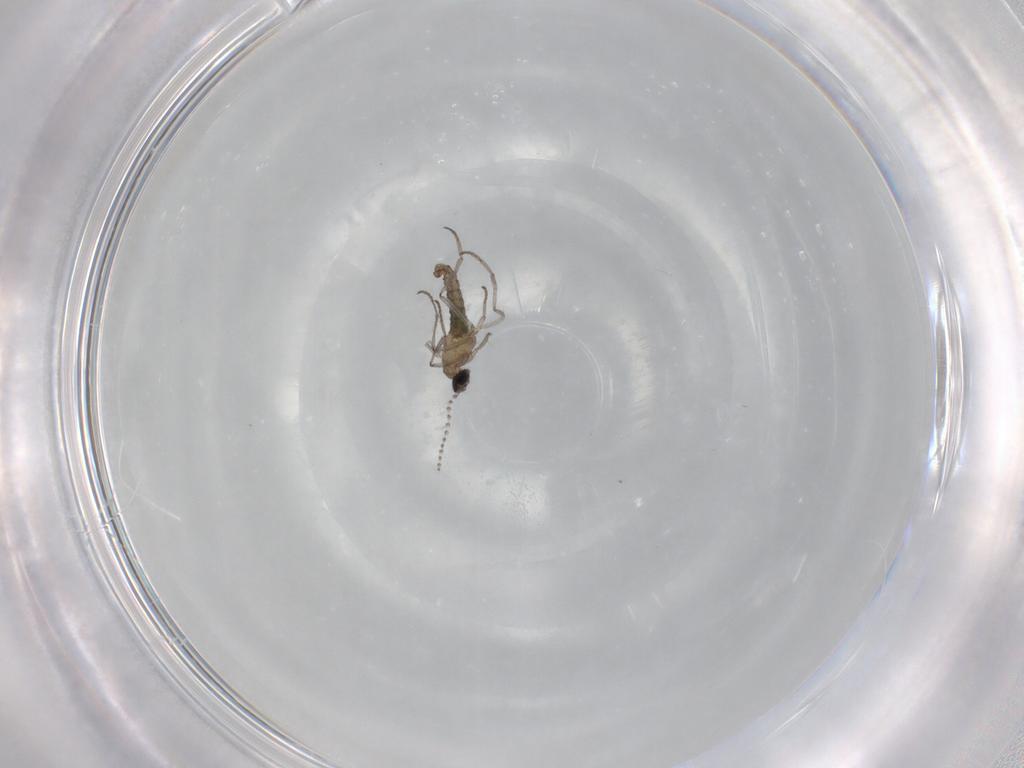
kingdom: Animalia
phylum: Arthropoda
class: Insecta
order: Diptera
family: Cecidomyiidae
